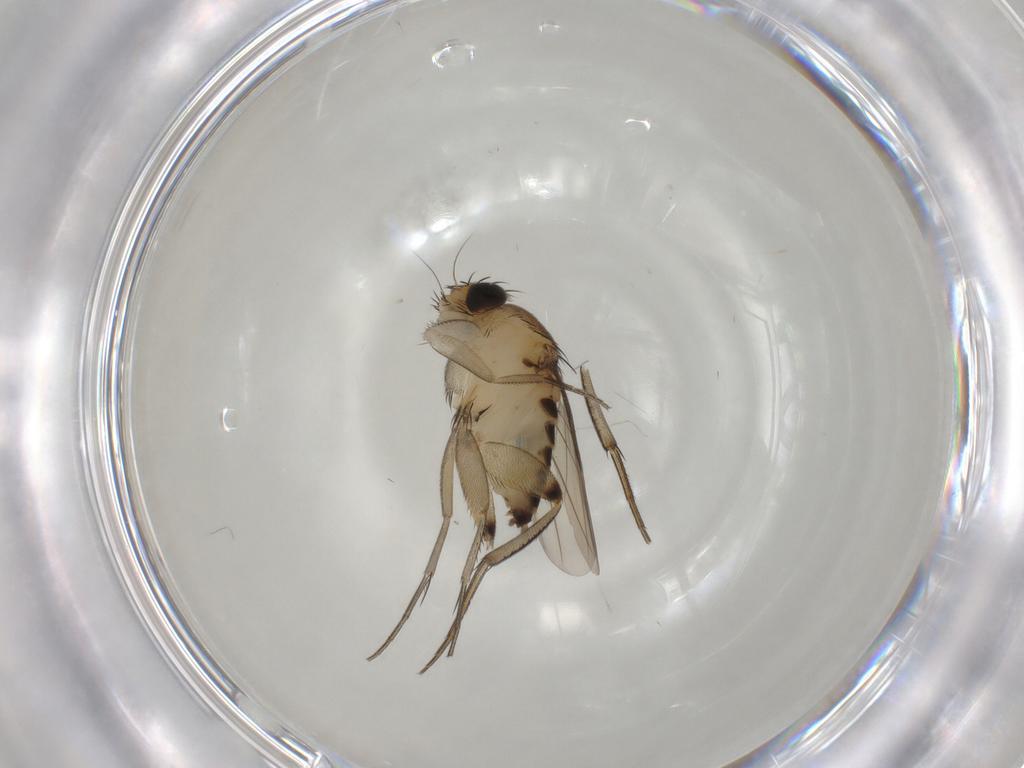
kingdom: Animalia
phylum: Arthropoda
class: Insecta
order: Diptera
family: Phoridae
